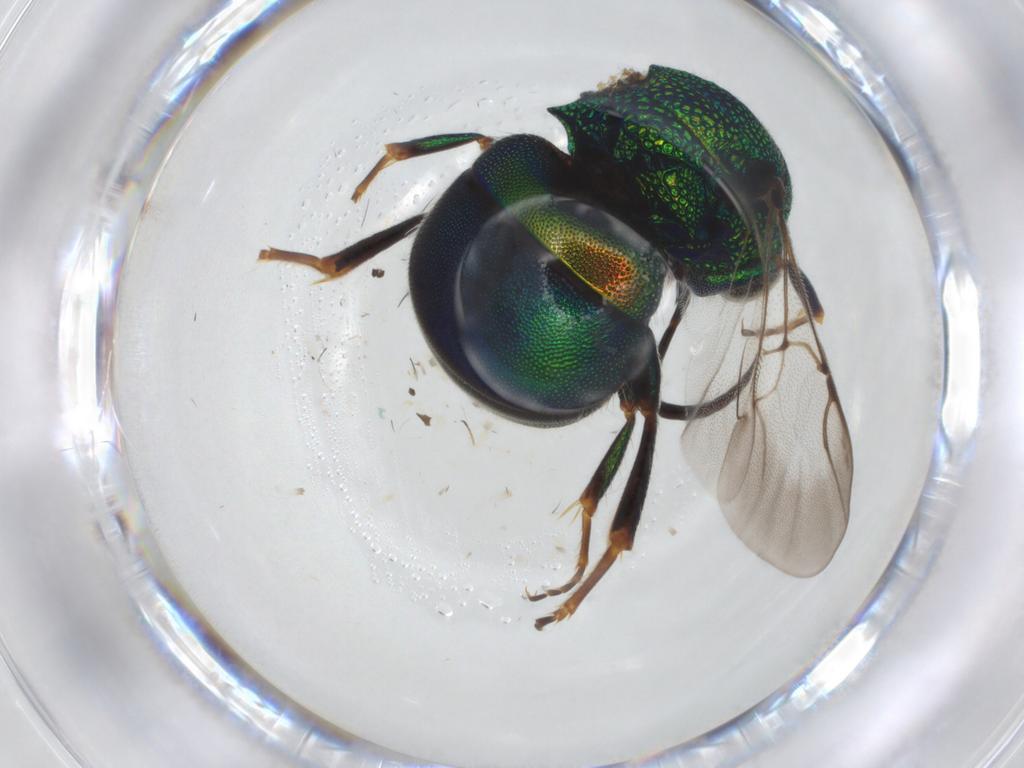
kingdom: Animalia
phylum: Arthropoda
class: Insecta
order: Hymenoptera
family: Chrysididae
